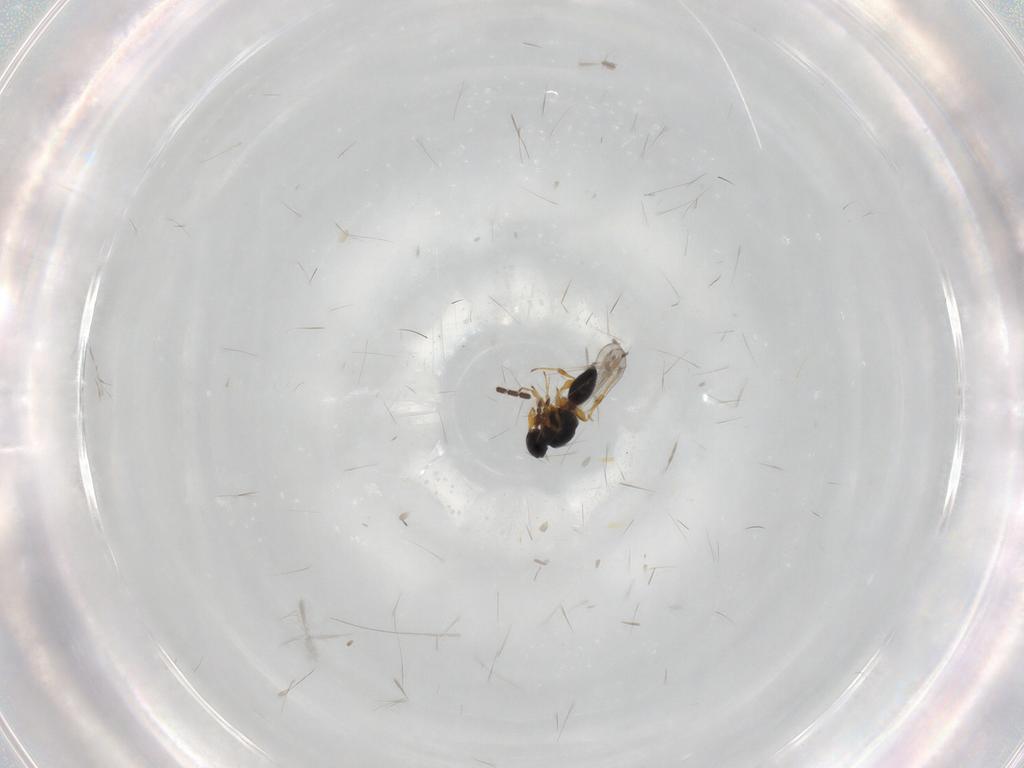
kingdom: Animalia
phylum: Arthropoda
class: Insecta
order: Hymenoptera
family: Platygastridae
